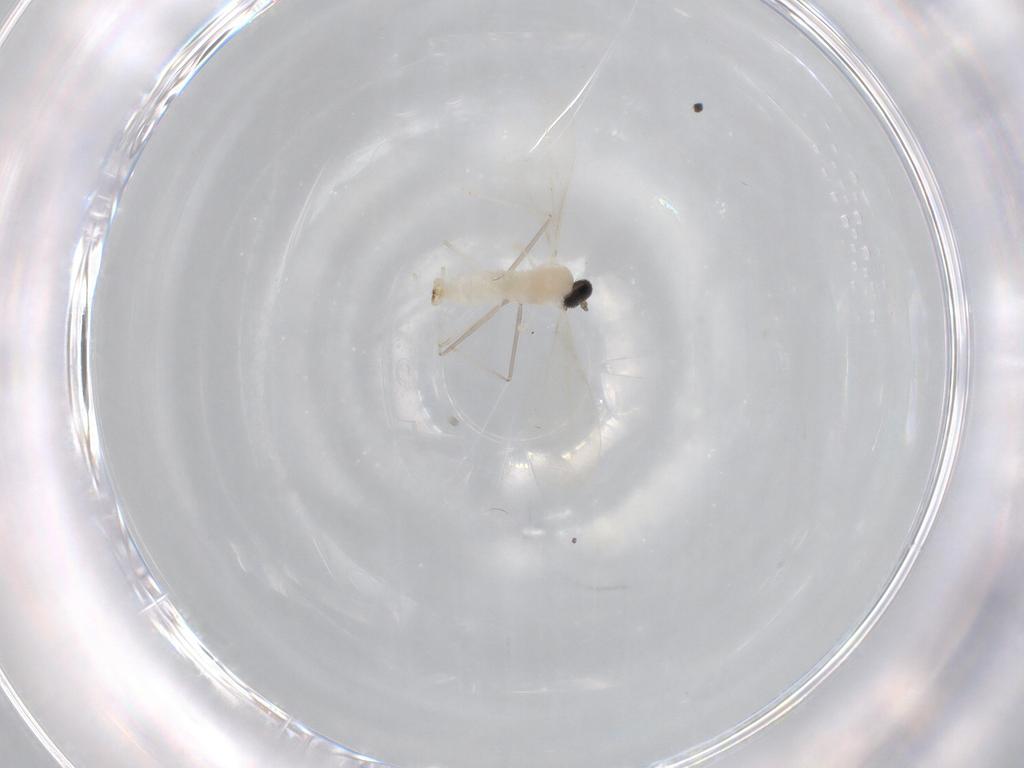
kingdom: Animalia
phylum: Arthropoda
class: Insecta
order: Diptera
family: Cecidomyiidae
